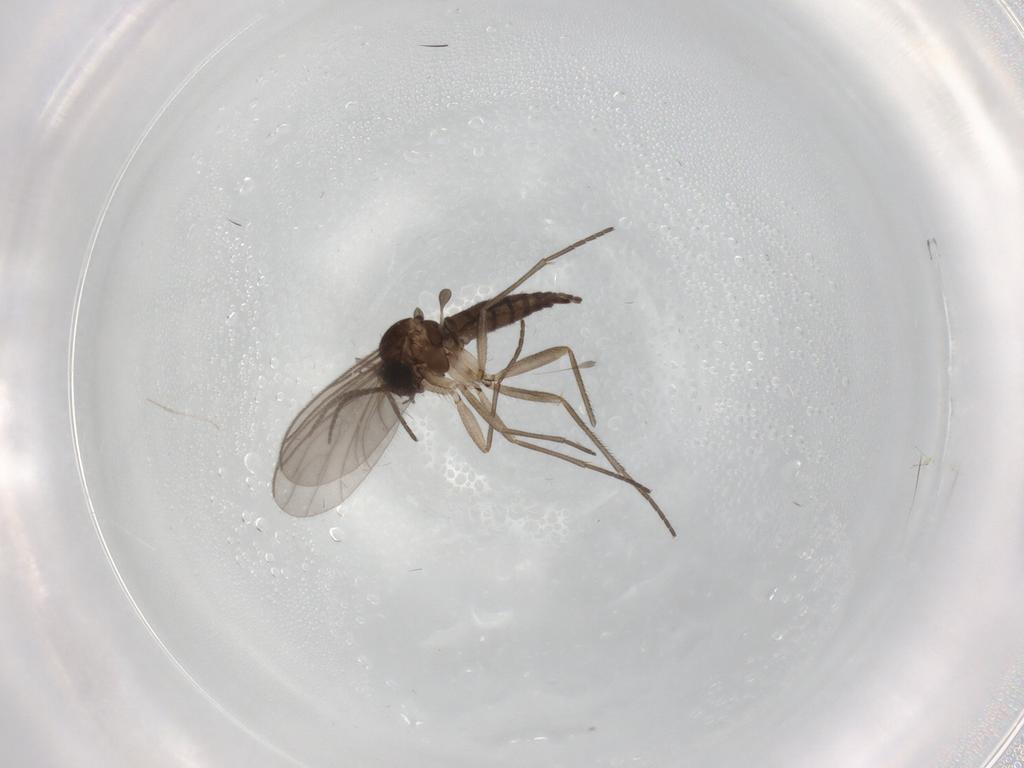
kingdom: Animalia
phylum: Arthropoda
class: Insecta
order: Diptera
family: Sciaridae
